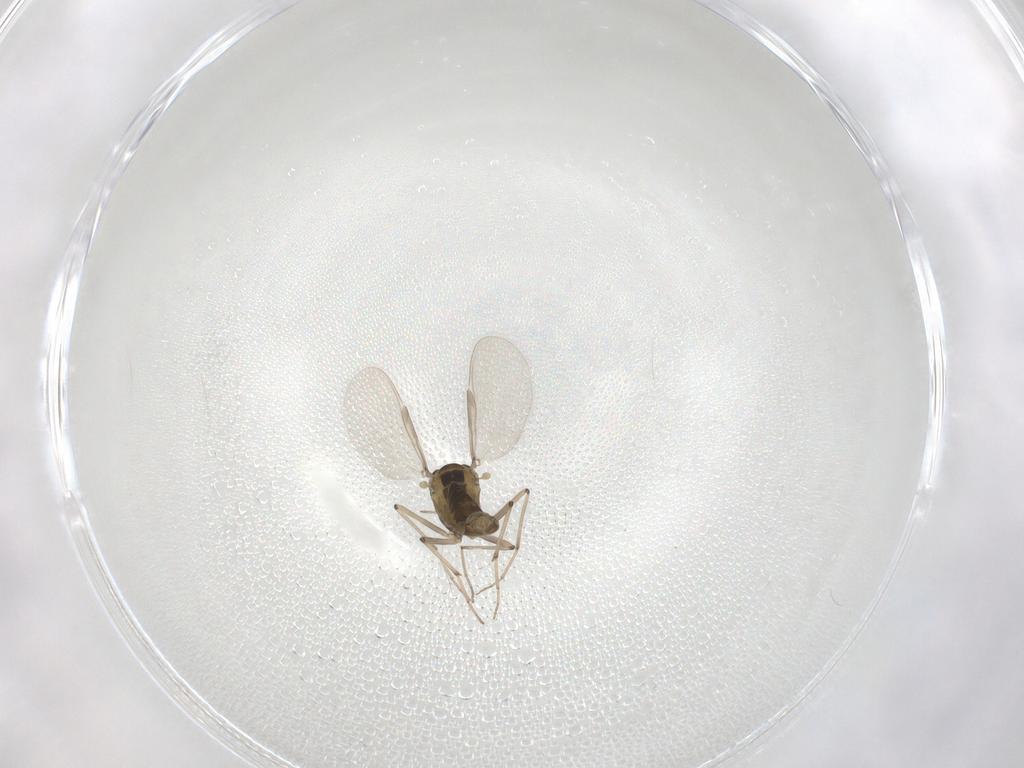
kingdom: Animalia
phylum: Arthropoda
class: Insecta
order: Diptera
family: Chironomidae
